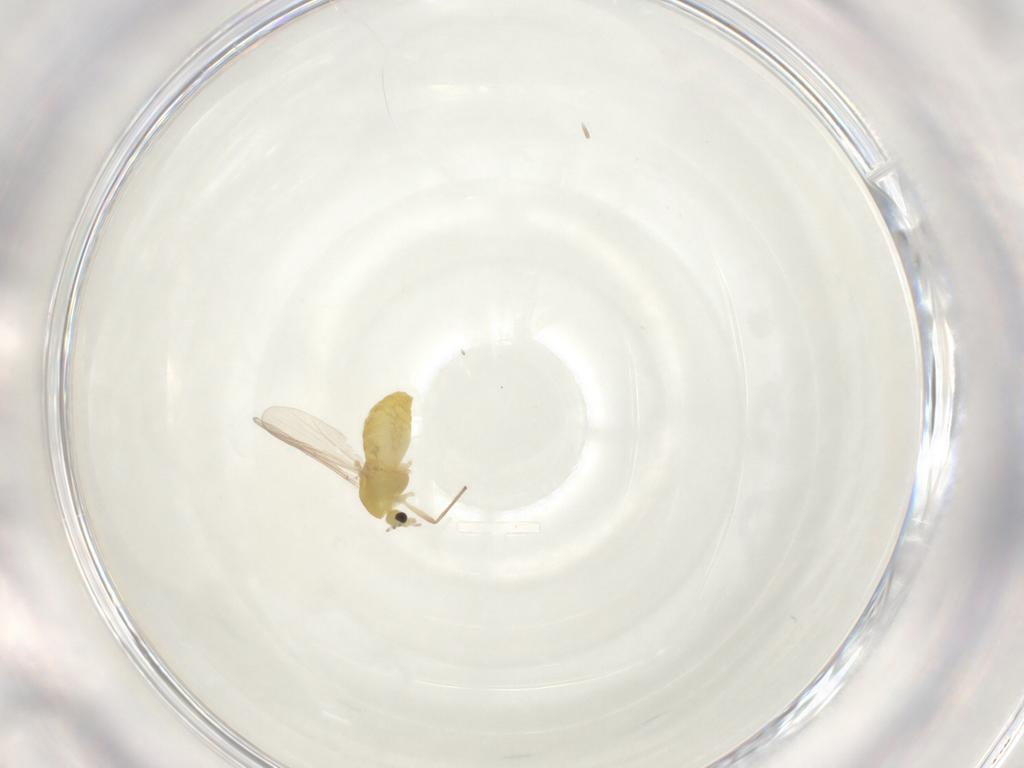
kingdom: Animalia
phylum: Arthropoda
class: Insecta
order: Diptera
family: Chironomidae
